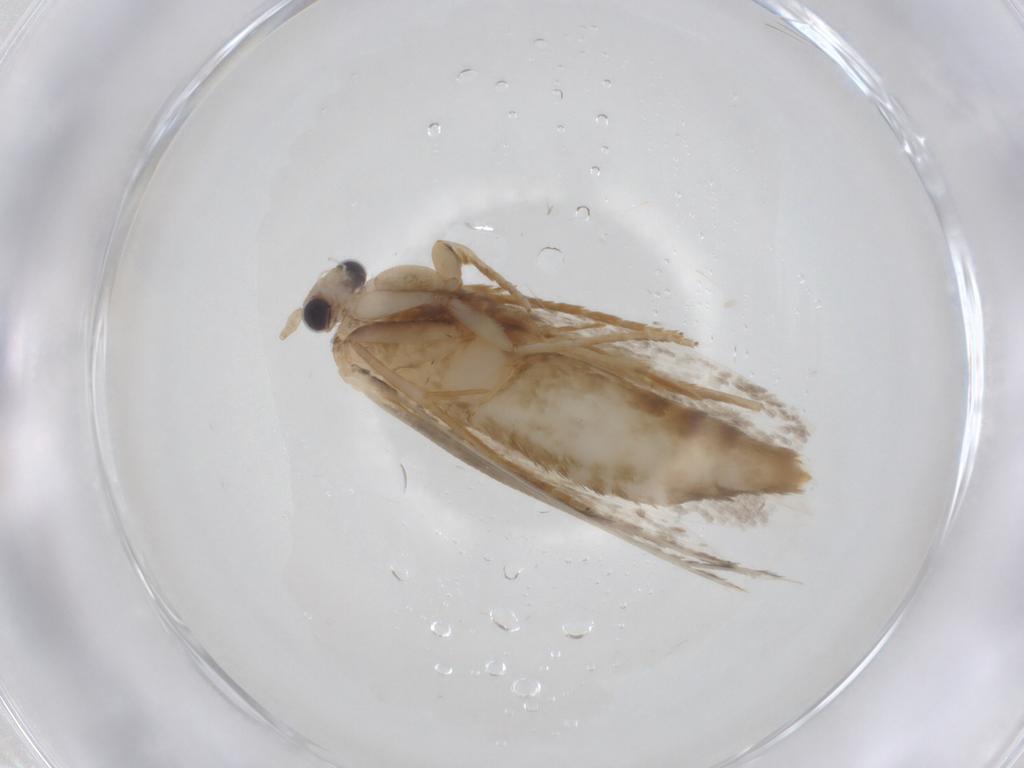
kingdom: Animalia
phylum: Arthropoda
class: Insecta
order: Lepidoptera
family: Tineidae
